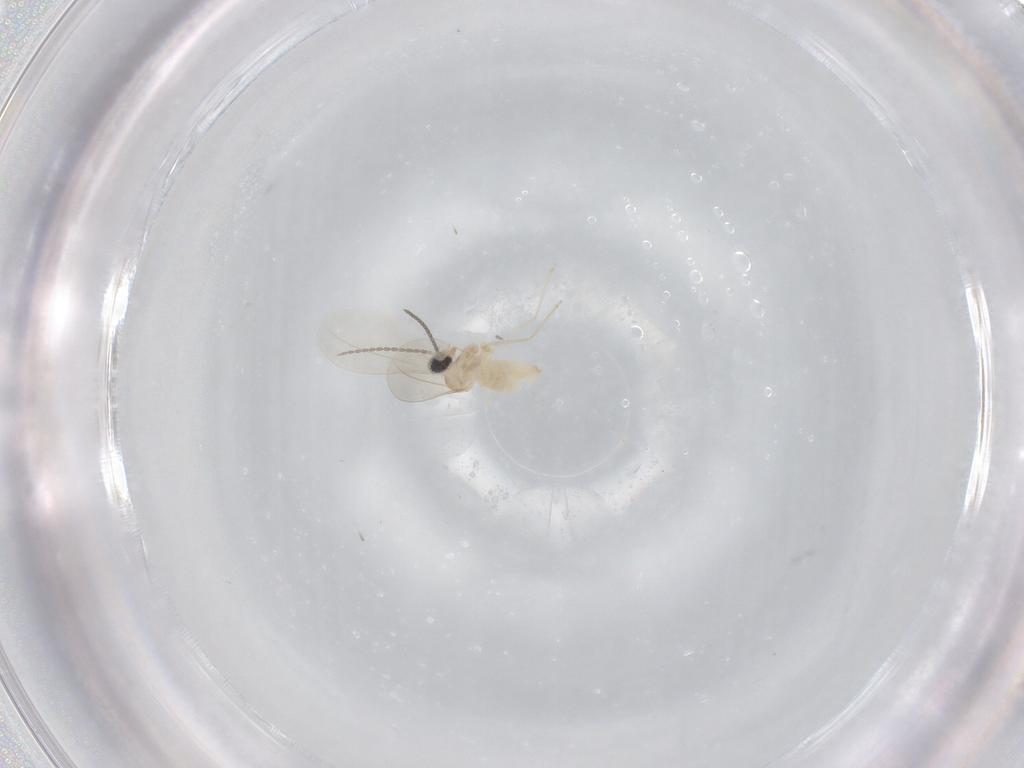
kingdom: Animalia
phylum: Arthropoda
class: Insecta
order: Diptera
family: Cecidomyiidae
